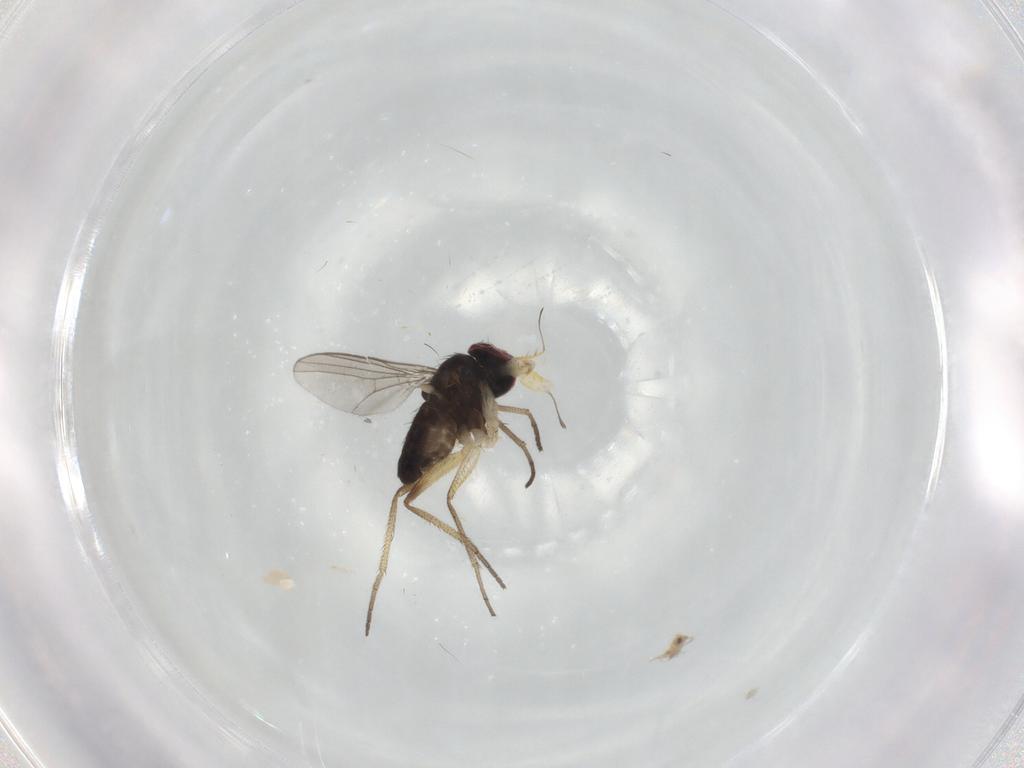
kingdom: Animalia
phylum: Arthropoda
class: Insecta
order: Diptera
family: Dolichopodidae
